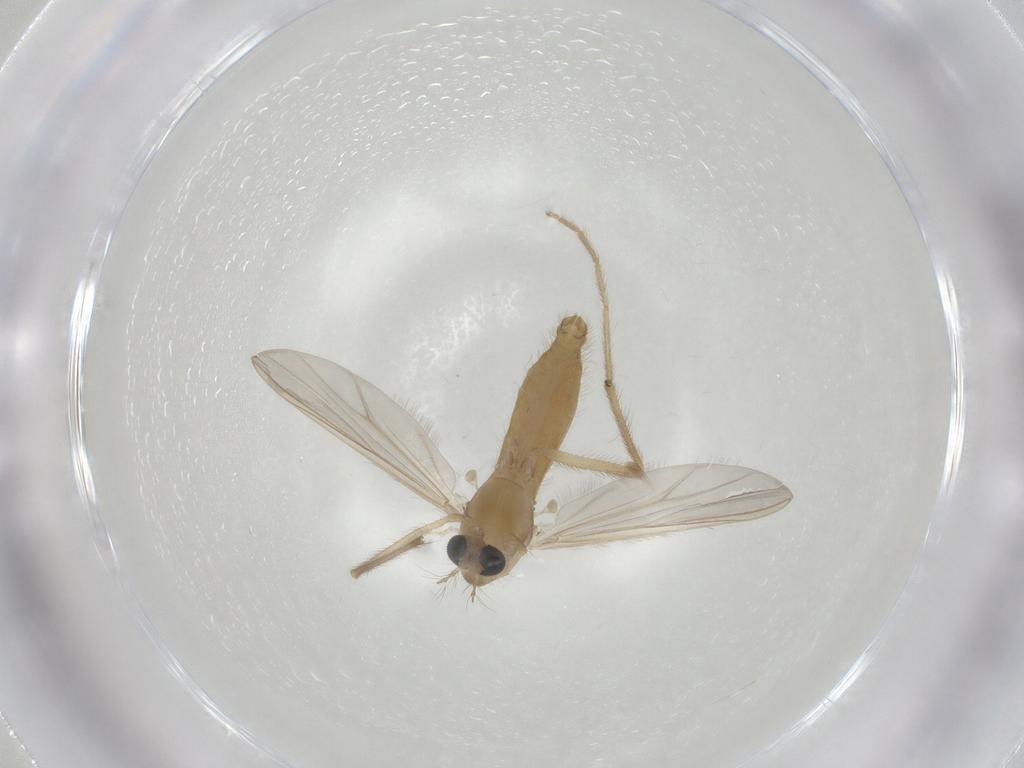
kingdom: Animalia
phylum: Arthropoda
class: Insecta
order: Diptera
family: Chironomidae
